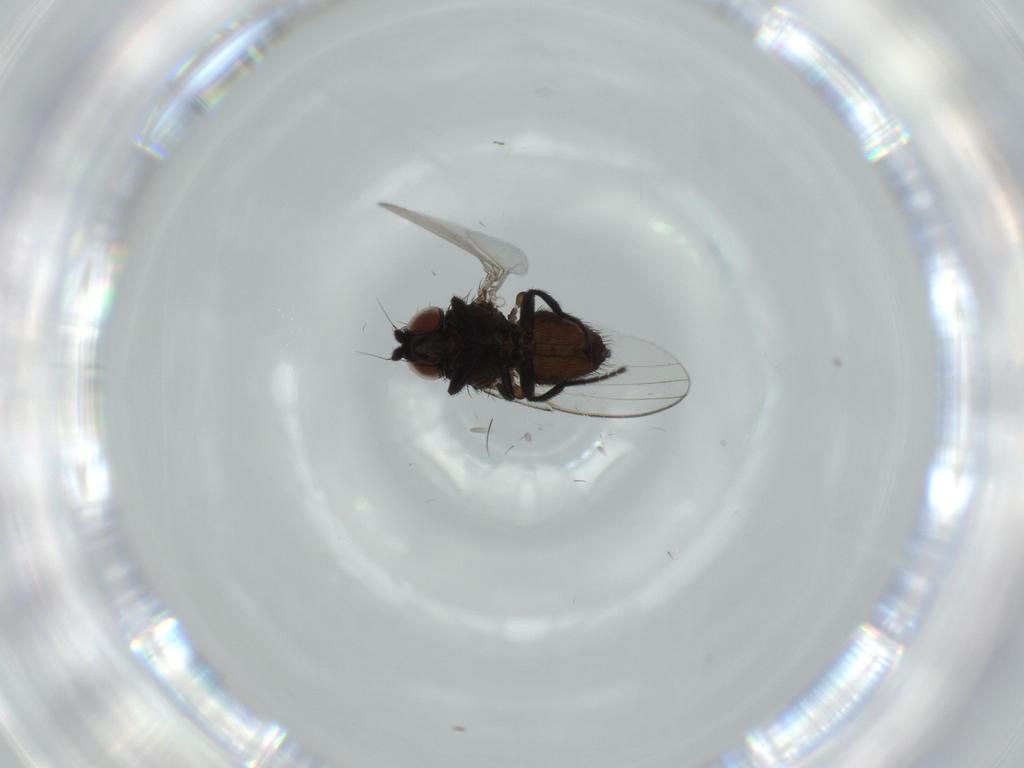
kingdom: Animalia
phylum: Arthropoda
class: Insecta
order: Diptera
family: Milichiidae
